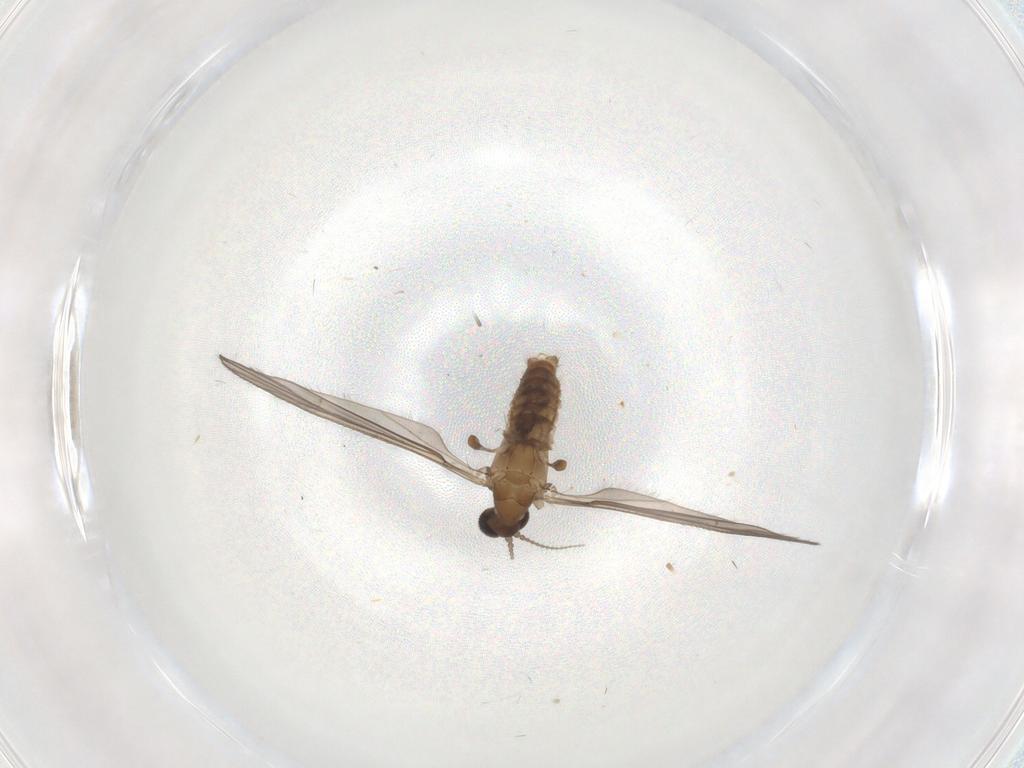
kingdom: Animalia
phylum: Arthropoda
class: Insecta
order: Diptera
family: Limoniidae
